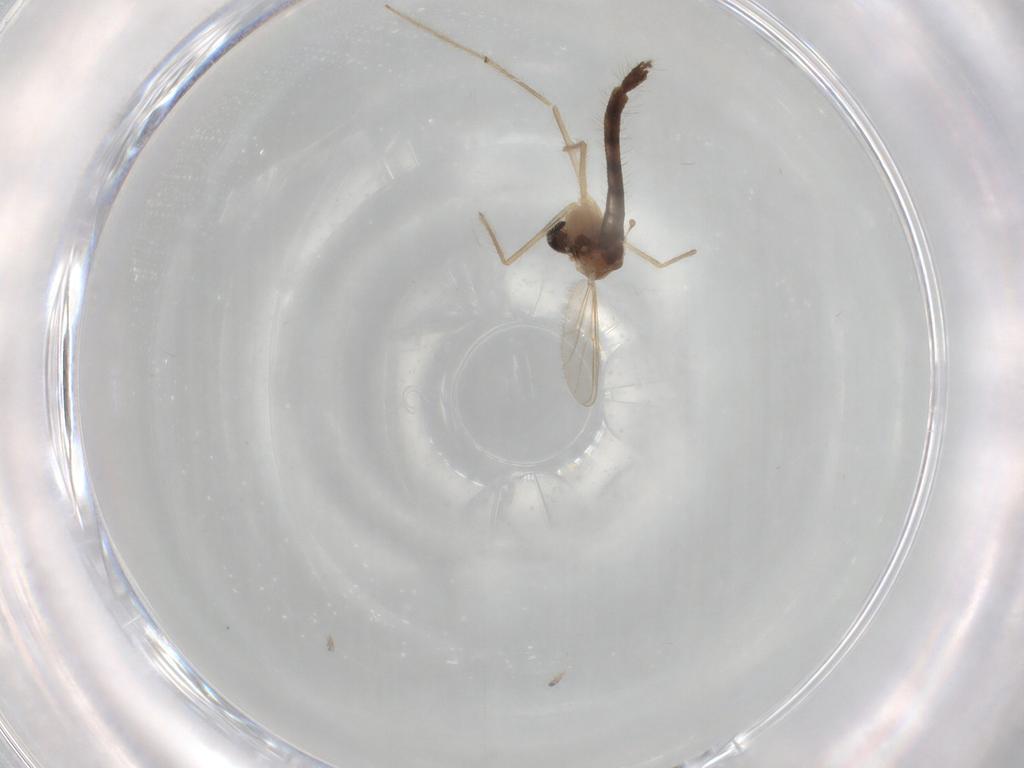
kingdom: Animalia
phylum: Arthropoda
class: Insecta
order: Diptera
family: Chironomidae
